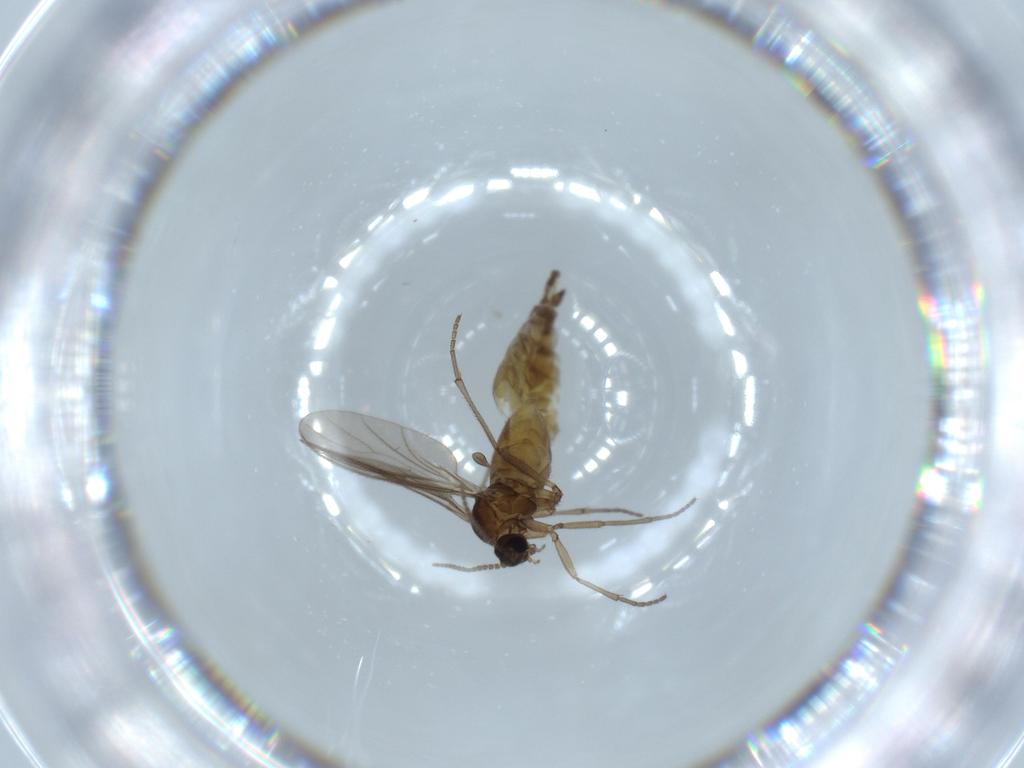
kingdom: Animalia
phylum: Arthropoda
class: Insecta
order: Diptera
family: Sciaridae
